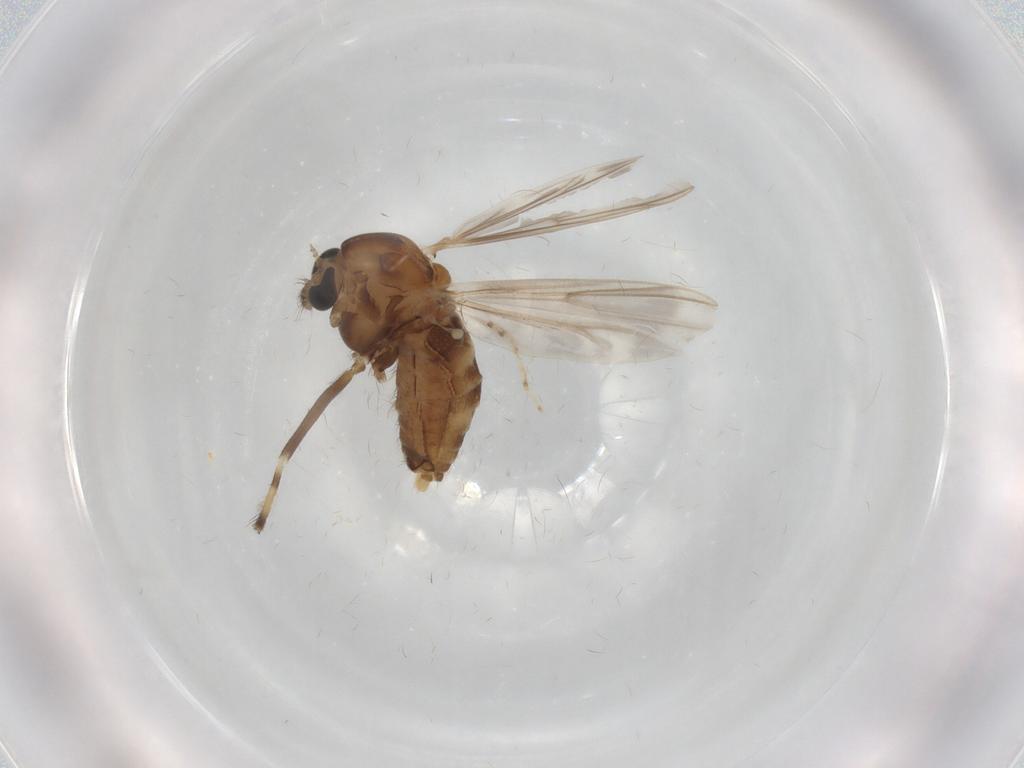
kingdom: Animalia
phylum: Arthropoda
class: Insecta
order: Diptera
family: Chironomidae
